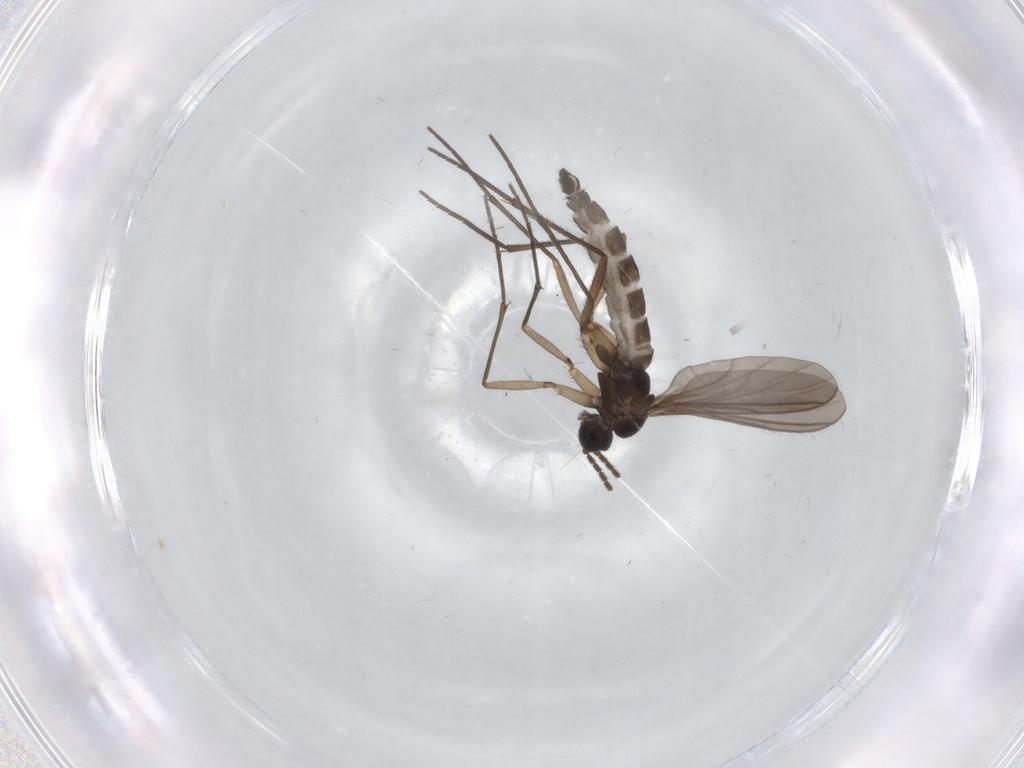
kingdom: Animalia
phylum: Arthropoda
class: Insecta
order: Diptera
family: Sciaridae
